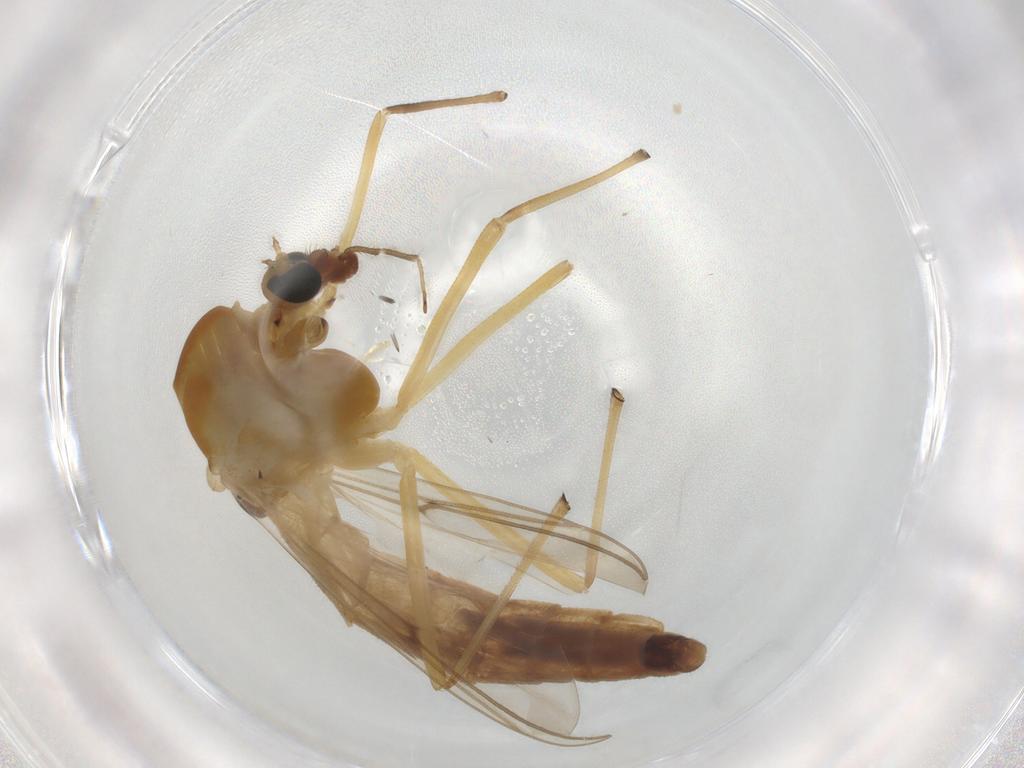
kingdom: Animalia
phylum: Arthropoda
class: Insecta
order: Diptera
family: Chironomidae
